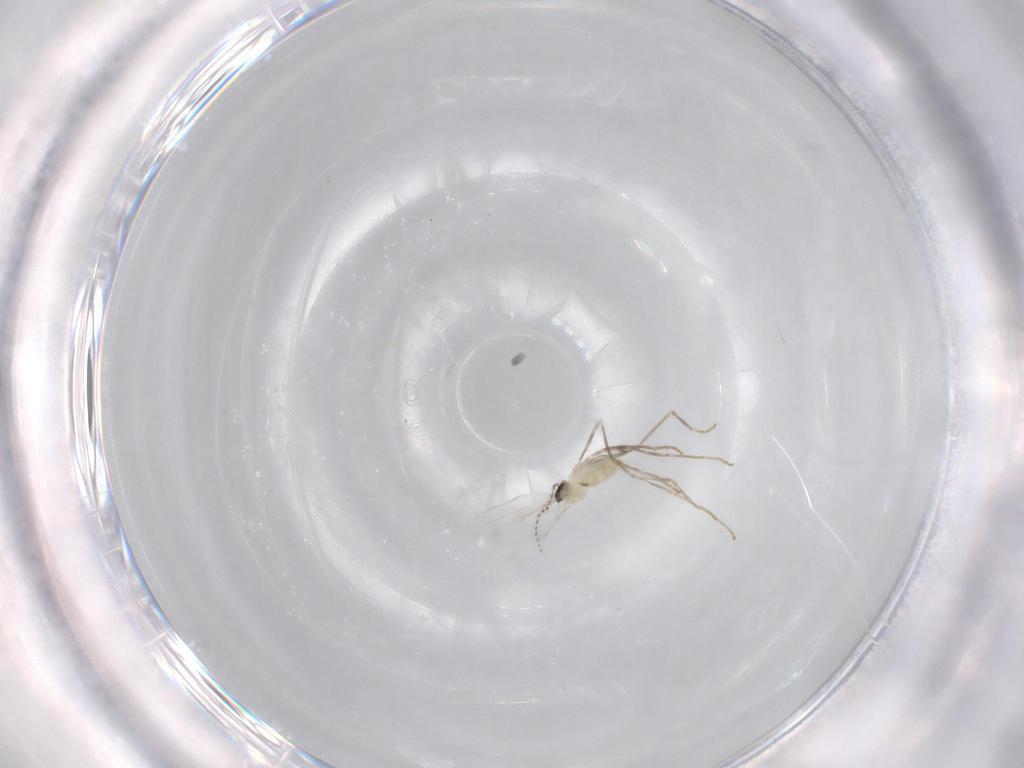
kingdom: Animalia
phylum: Arthropoda
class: Insecta
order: Diptera
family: Cecidomyiidae
